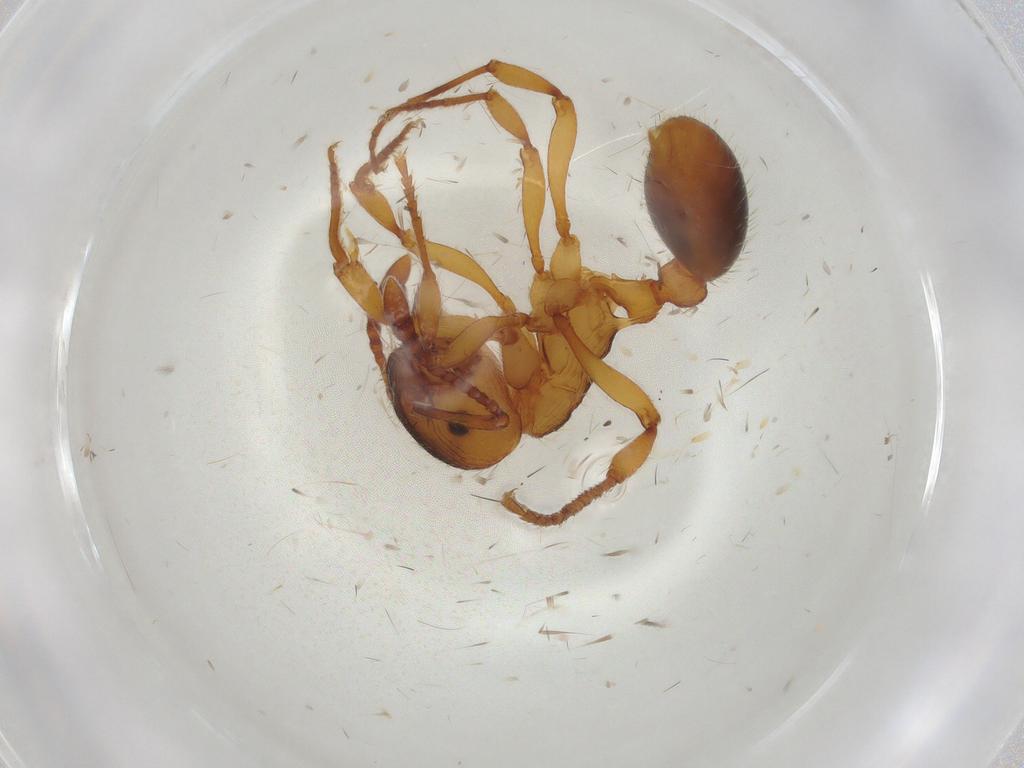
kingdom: Animalia
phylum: Arthropoda
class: Insecta
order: Hymenoptera
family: Formicidae
